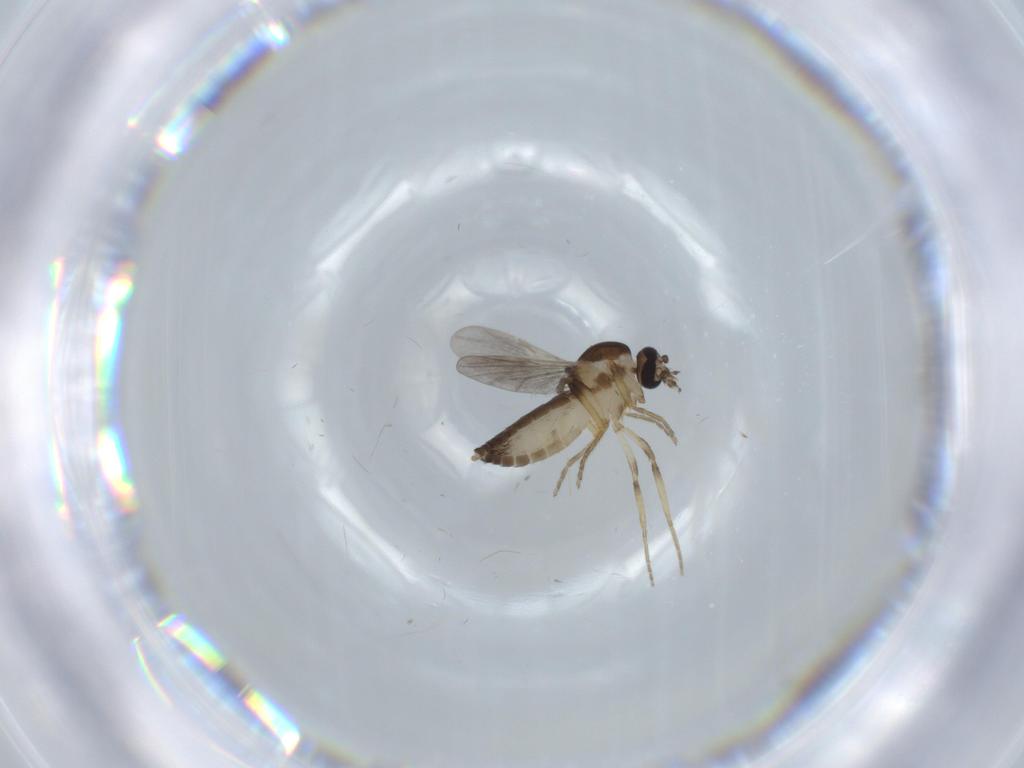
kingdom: Animalia
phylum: Arthropoda
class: Insecta
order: Diptera
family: Ceratopogonidae
